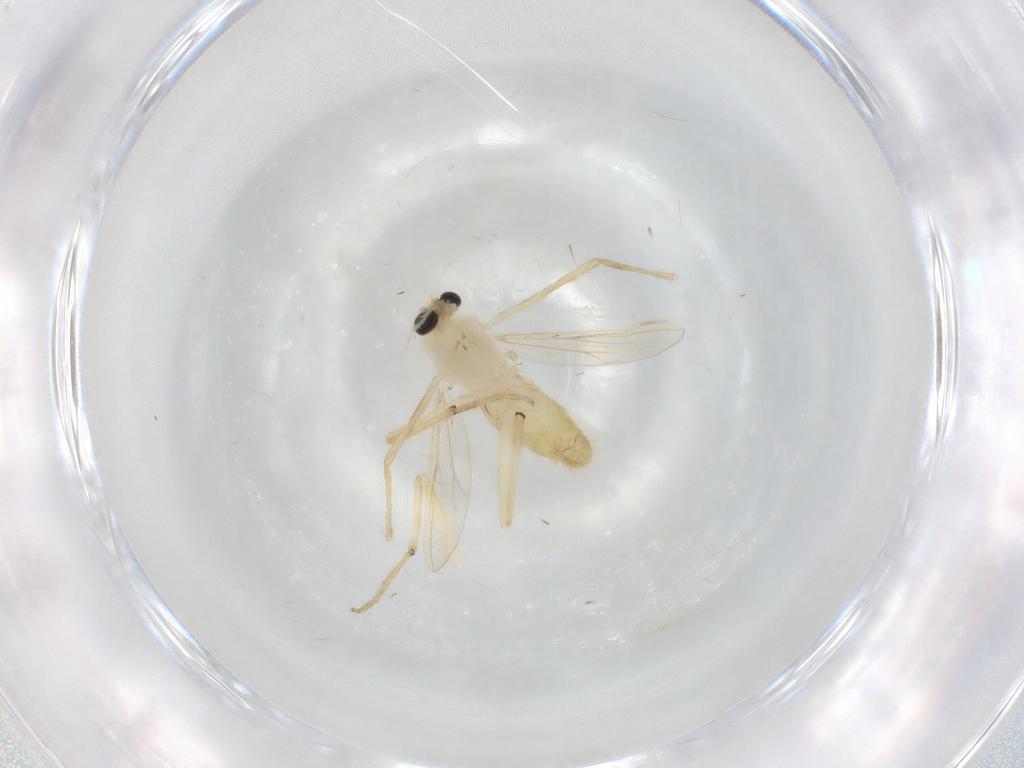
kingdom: Animalia
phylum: Arthropoda
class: Insecta
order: Diptera
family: Chironomidae
